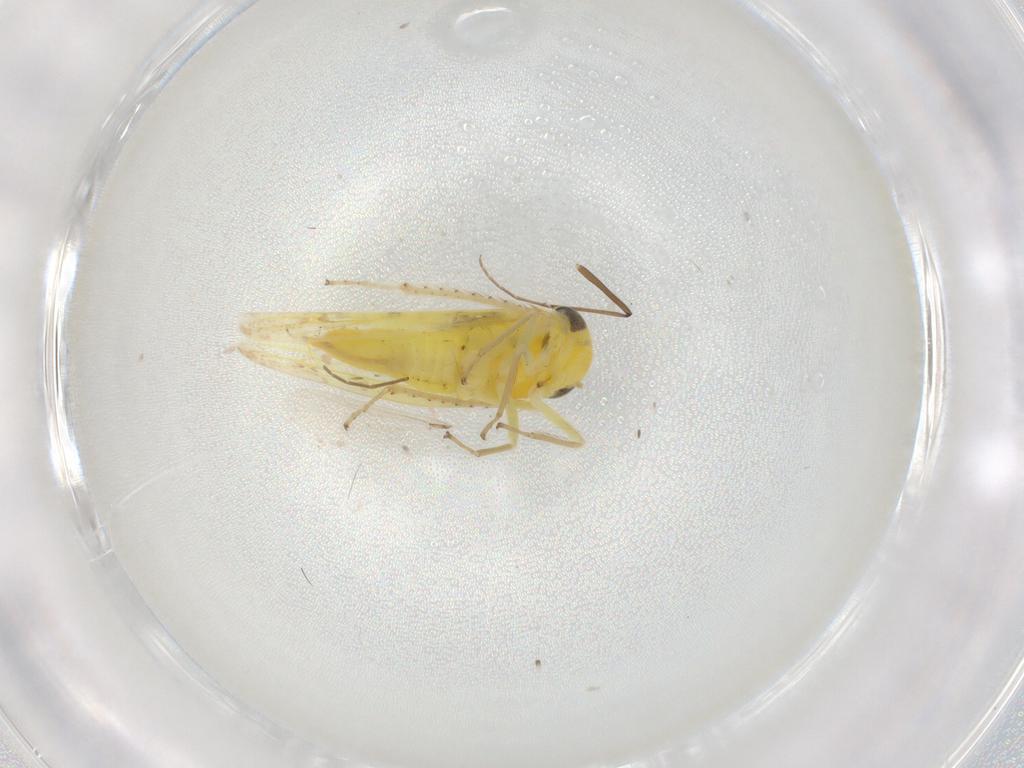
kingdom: Animalia
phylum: Arthropoda
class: Insecta
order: Hemiptera
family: Cicadellidae
